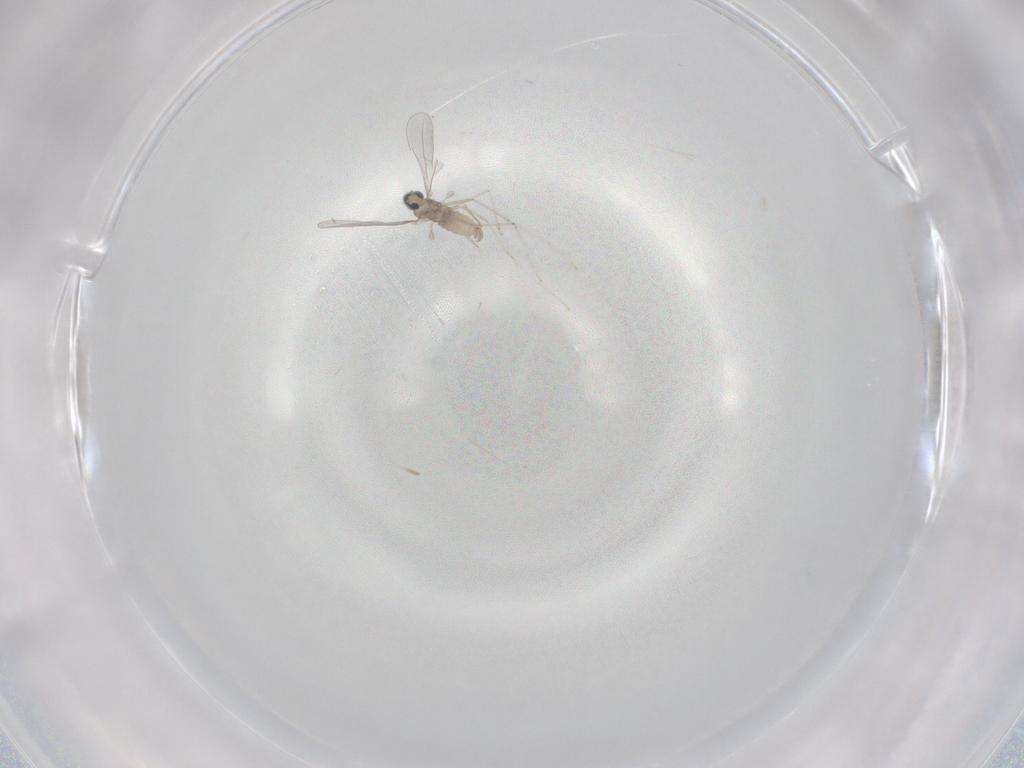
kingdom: Animalia
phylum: Arthropoda
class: Insecta
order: Diptera
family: Cecidomyiidae
